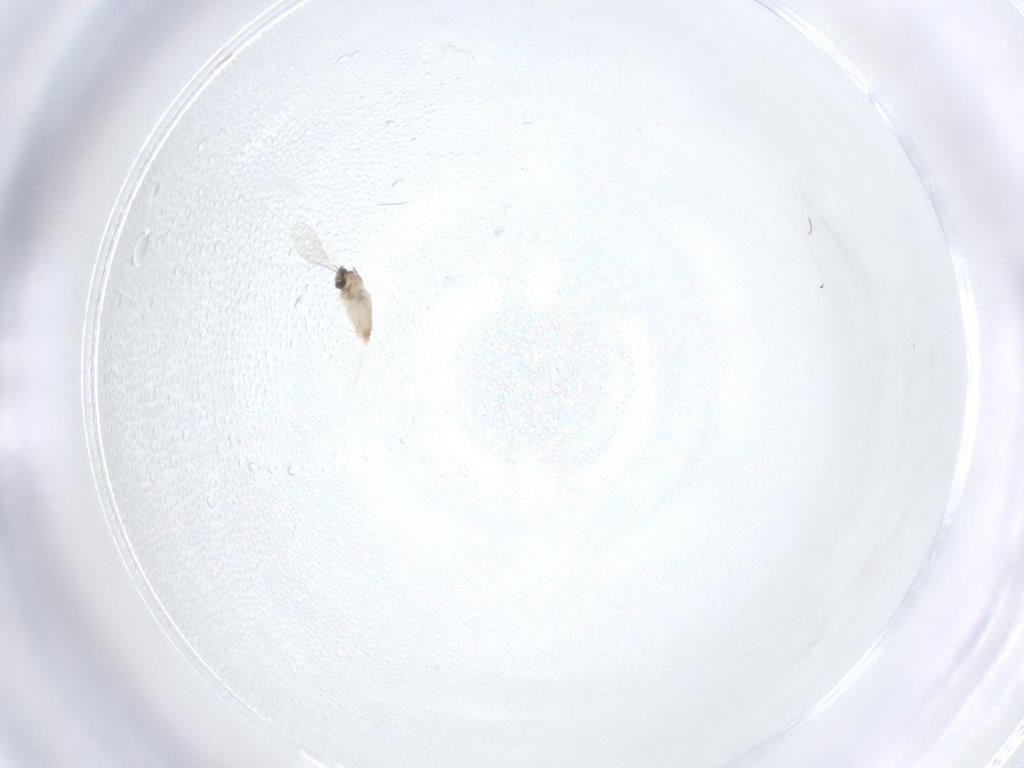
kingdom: Animalia
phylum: Arthropoda
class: Insecta
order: Diptera
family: Cecidomyiidae
